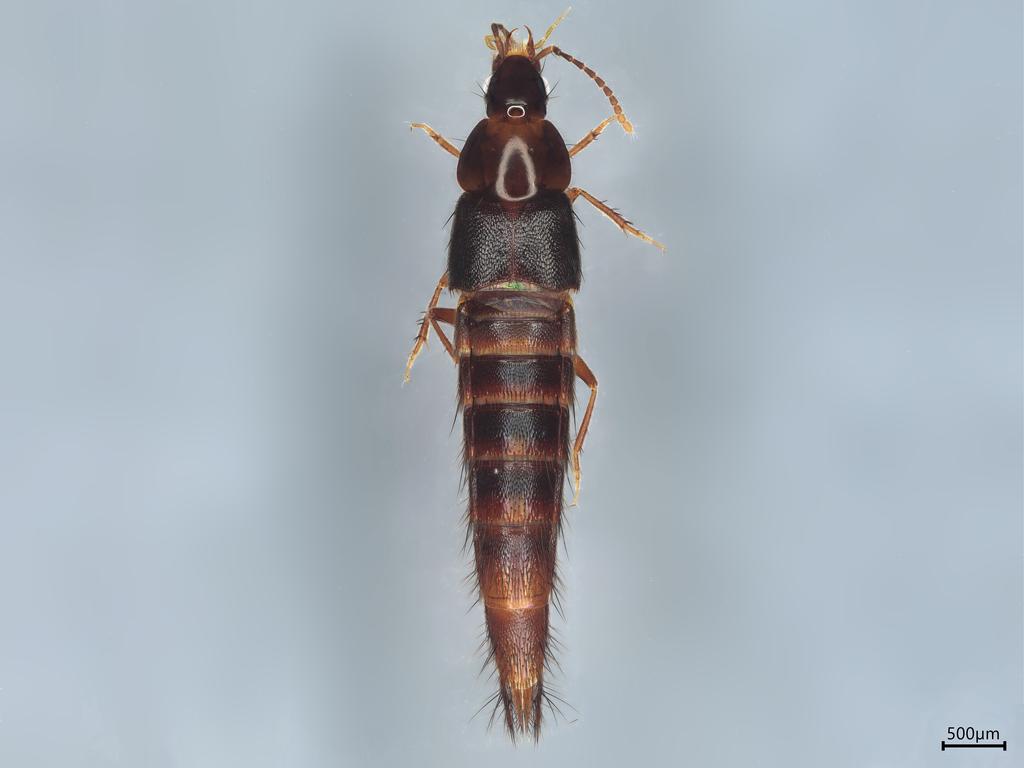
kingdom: Animalia
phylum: Arthropoda
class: Insecta
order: Coleoptera
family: Staphylinidae
